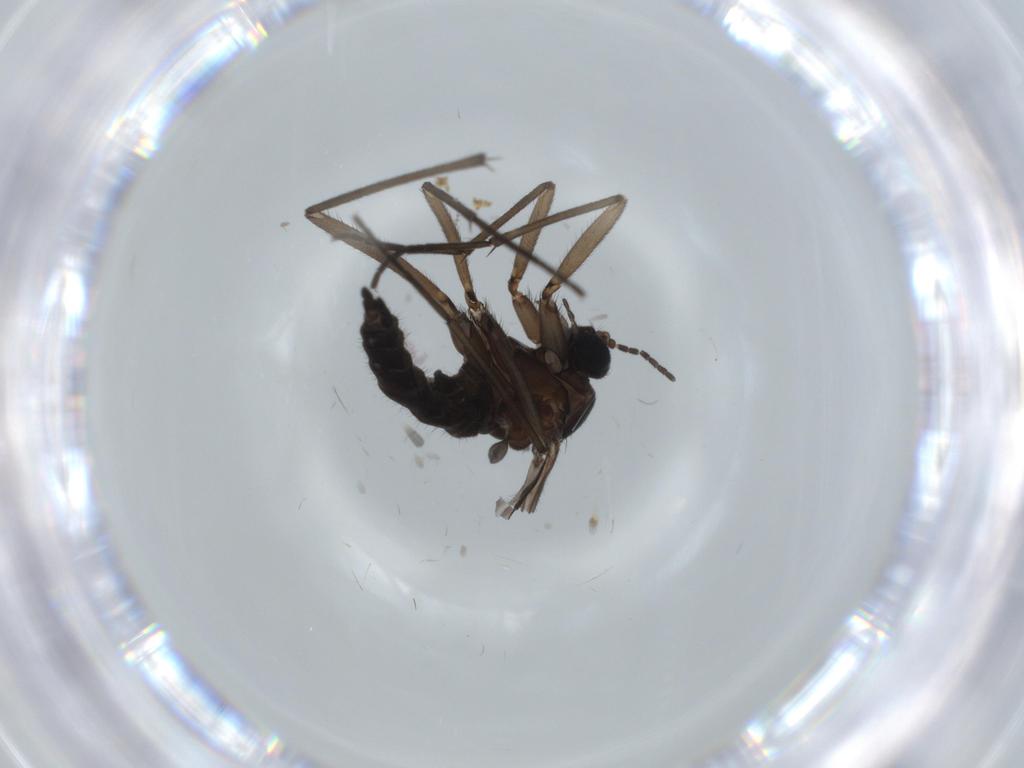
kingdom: Animalia
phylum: Arthropoda
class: Insecta
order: Diptera
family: Sciaridae
